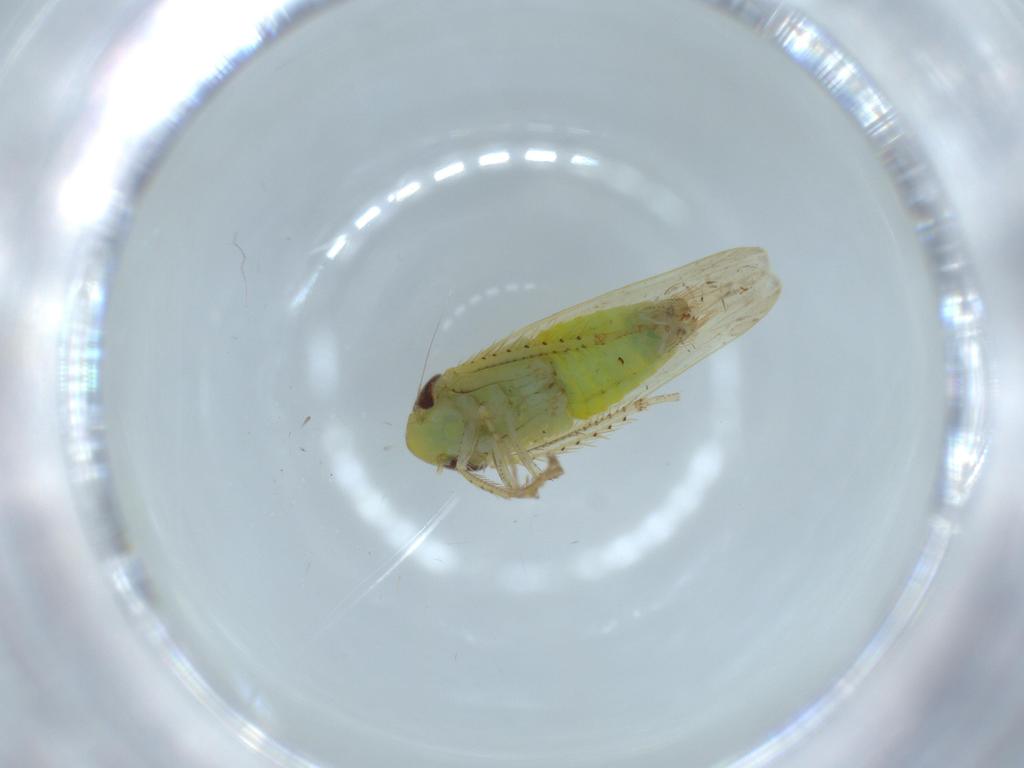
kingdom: Animalia
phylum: Arthropoda
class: Insecta
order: Hemiptera
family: Cicadellidae
